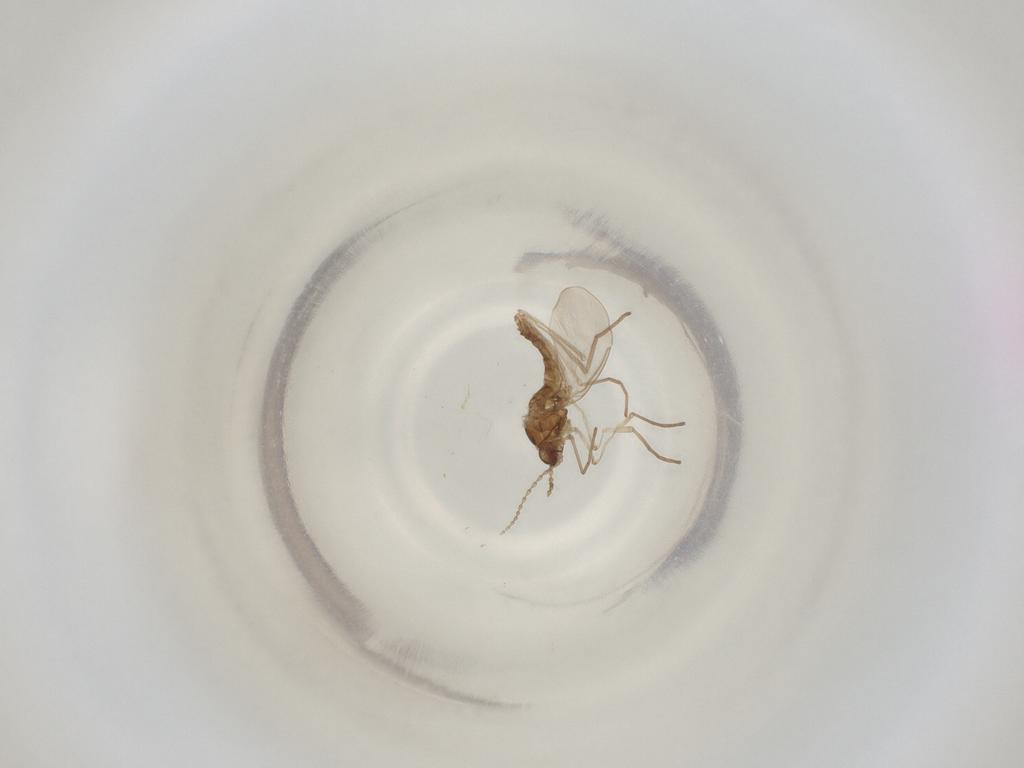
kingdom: Animalia
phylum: Arthropoda
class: Insecta
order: Diptera
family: Cecidomyiidae
